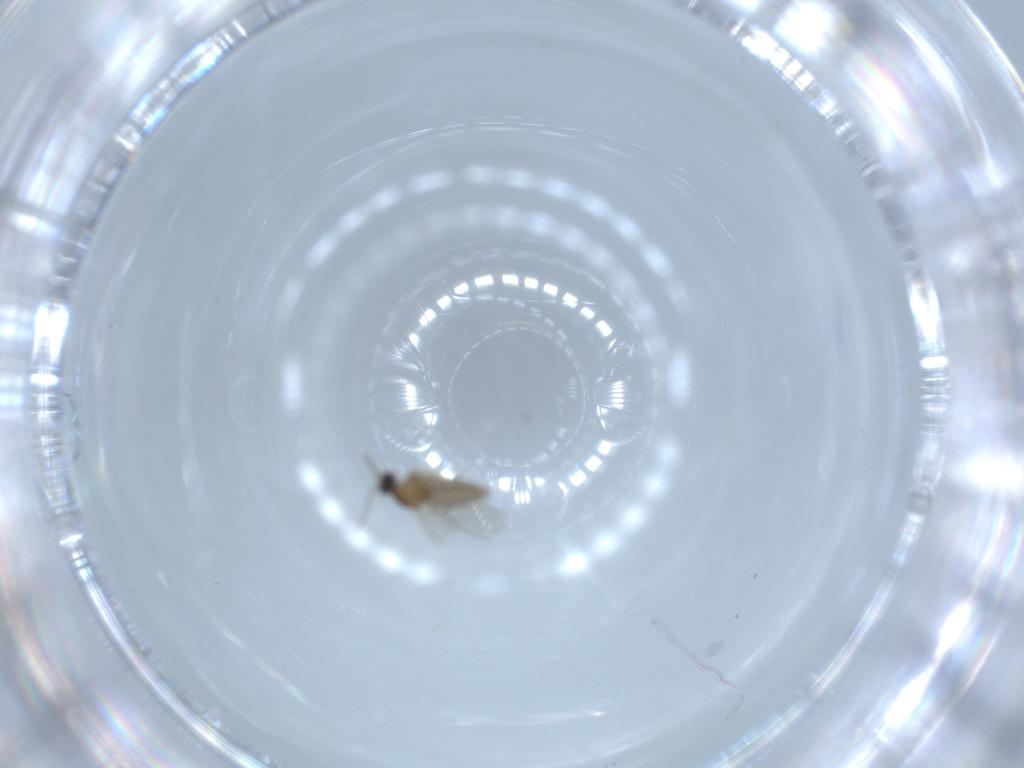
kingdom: Animalia
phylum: Arthropoda
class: Insecta
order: Diptera
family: Cecidomyiidae
